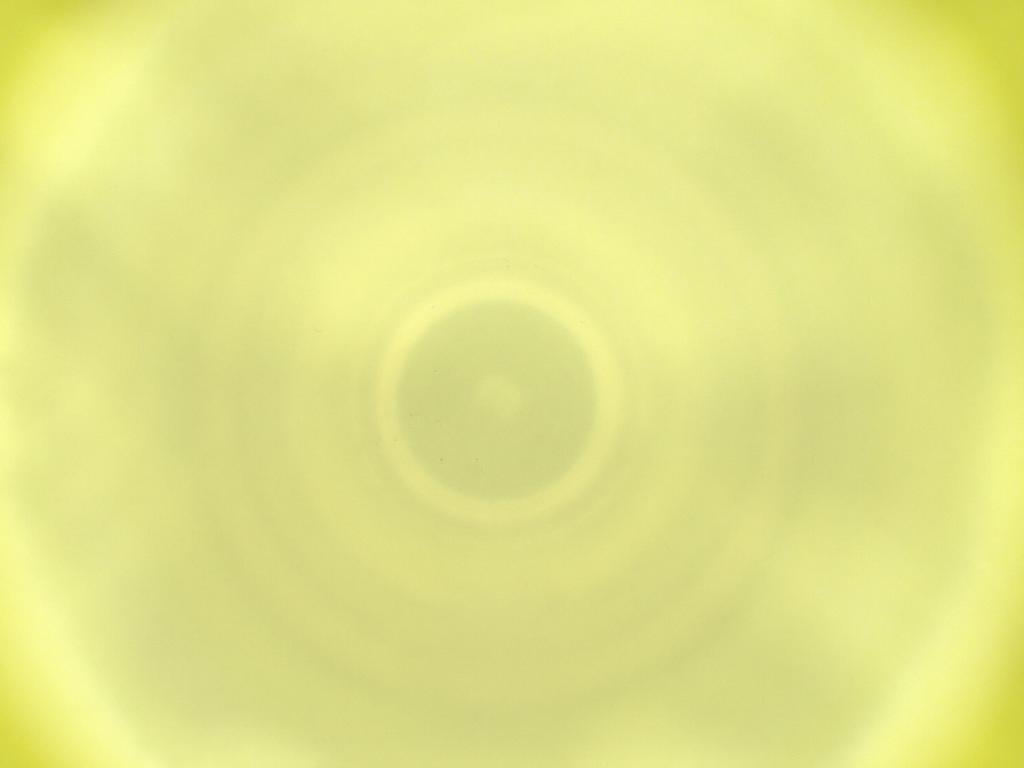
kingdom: Animalia
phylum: Arthropoda
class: Insecta
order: Diptera
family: Cecidomyiidae
